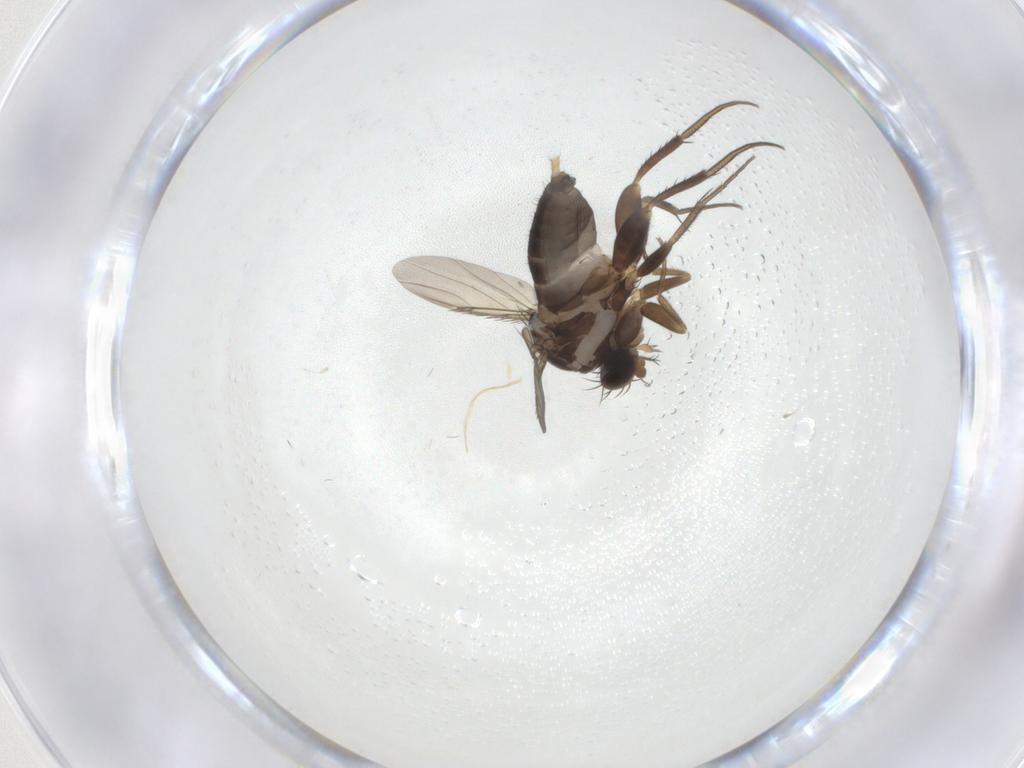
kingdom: Animalia
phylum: Arthropoda
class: Insecta
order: Diptera
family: Phoridae
